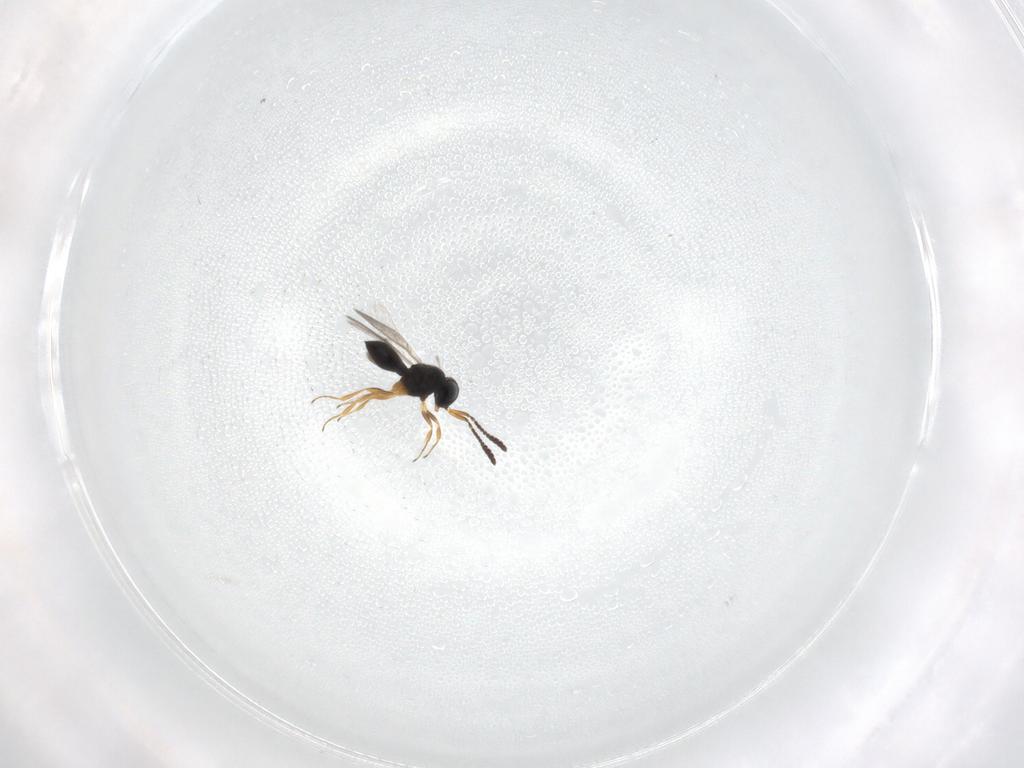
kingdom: Animalia
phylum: Arthropoda
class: Insecta
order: Hymenoptera
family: Scelionidae
